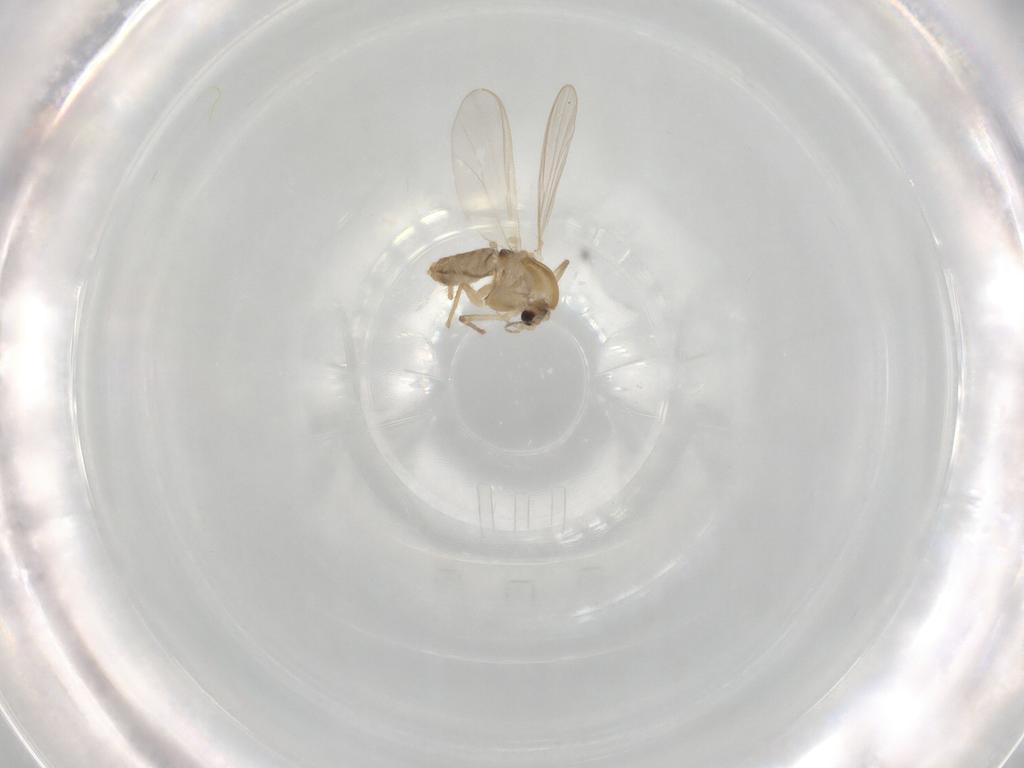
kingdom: Animalia
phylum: Arthropoda
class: Insecta
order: Diptera
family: Chironomidae
